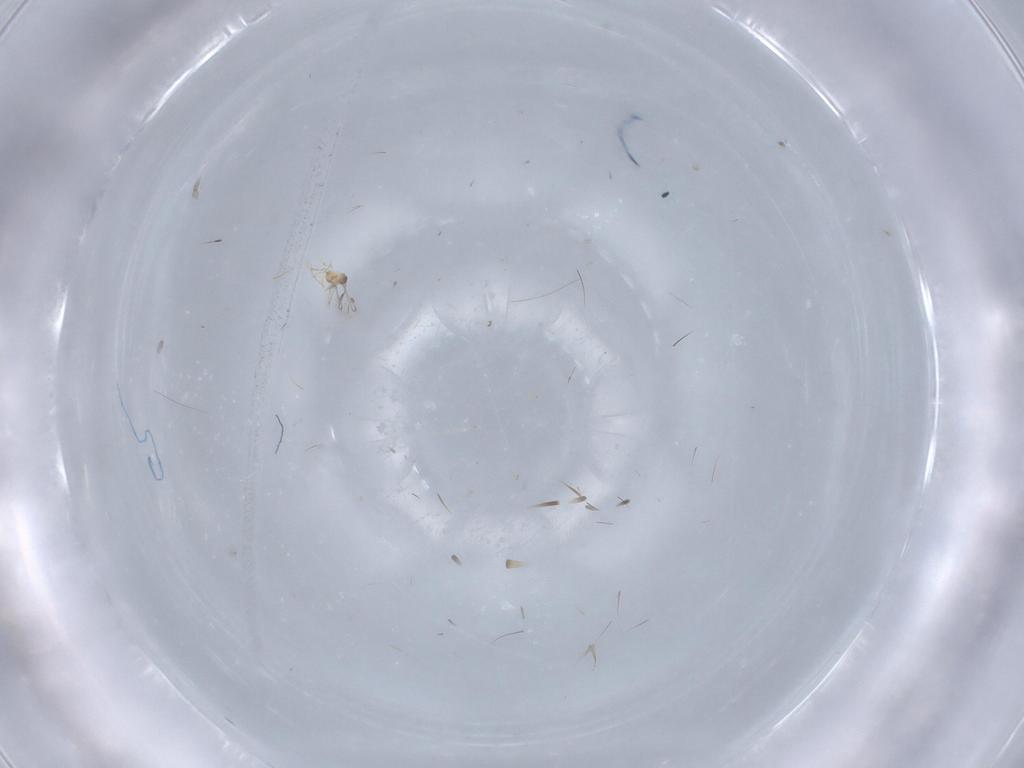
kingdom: Animalia
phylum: Arthropoda
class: Insecta
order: Blattodea
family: Ectobiidae
